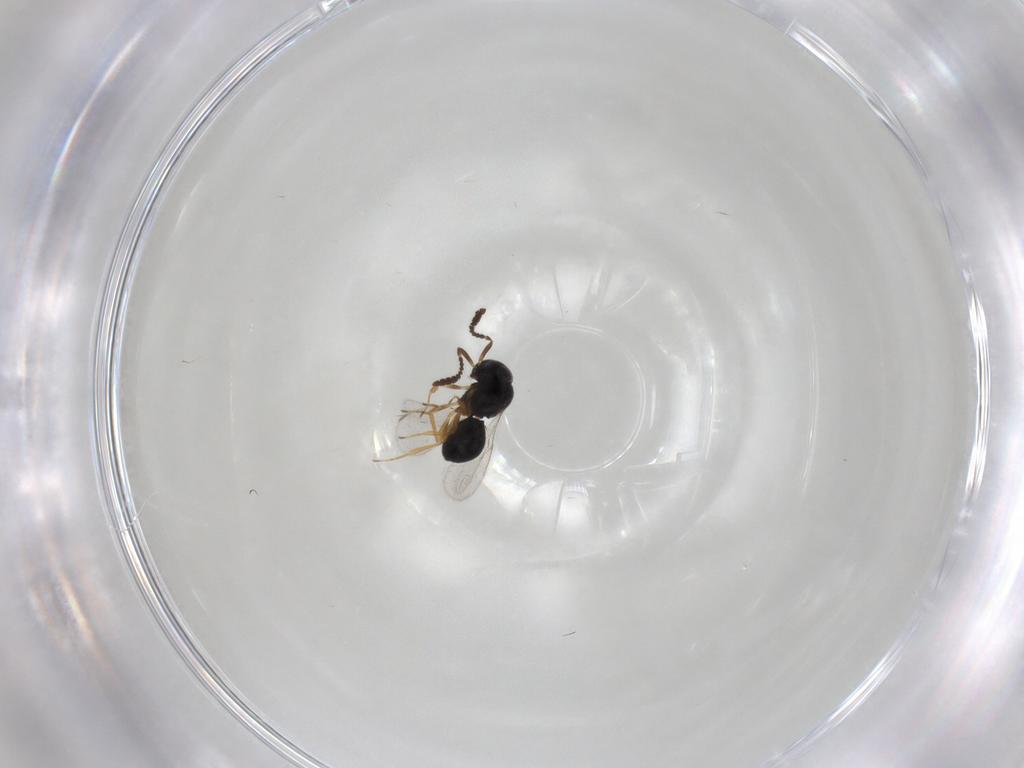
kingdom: Animalia
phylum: Arthropoda
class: Insecta
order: Hymenoptera
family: Scelionidae
